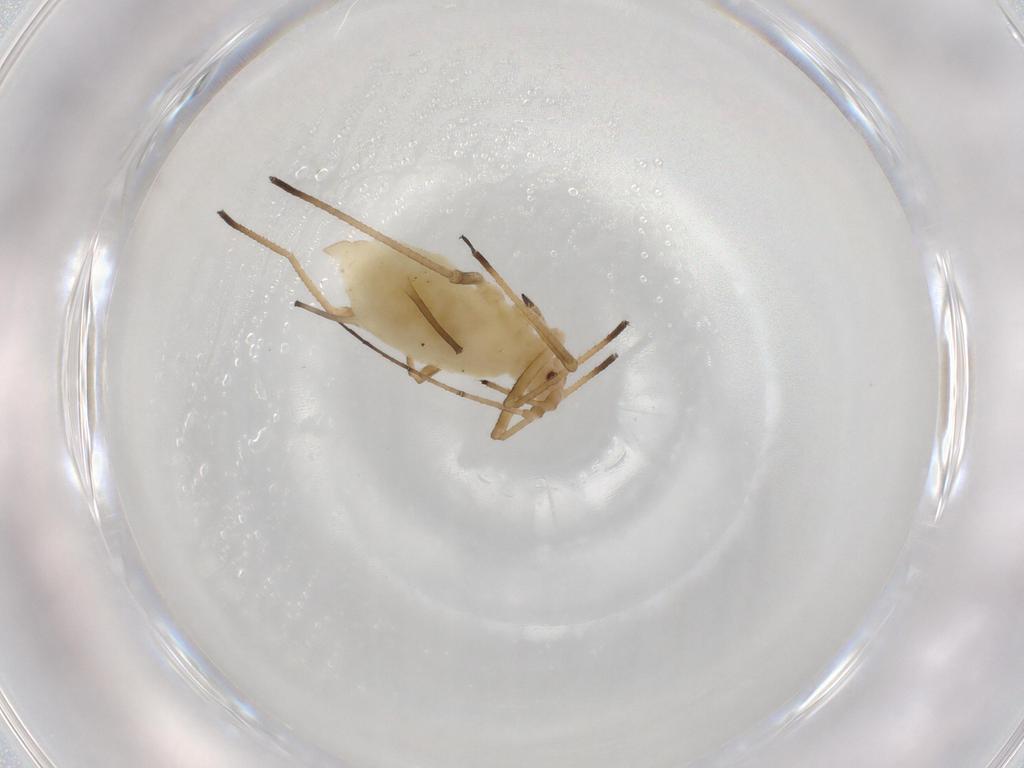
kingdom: Animalia
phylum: Arthropoda
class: Insecta
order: Hemiptera
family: Aphididae
